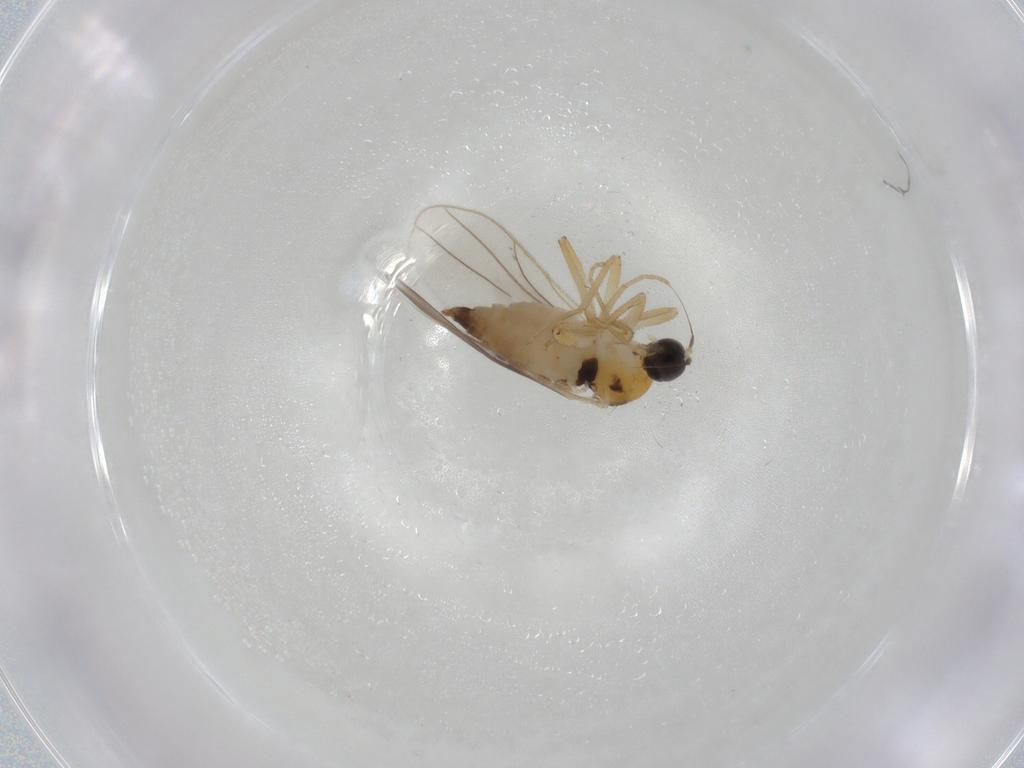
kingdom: Animalia
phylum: Arthropoda
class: Insecta
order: Diptera
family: Hybotidae
